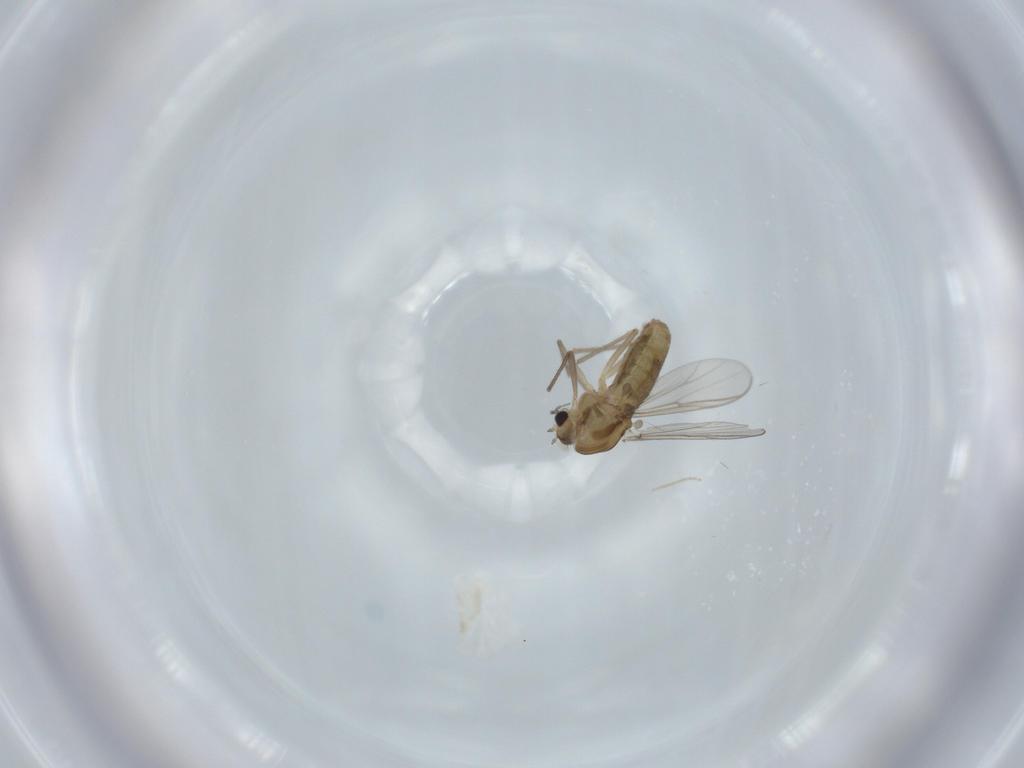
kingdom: Animalia
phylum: Arthropoda
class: Insecta
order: Diptera
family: Chironomidae
